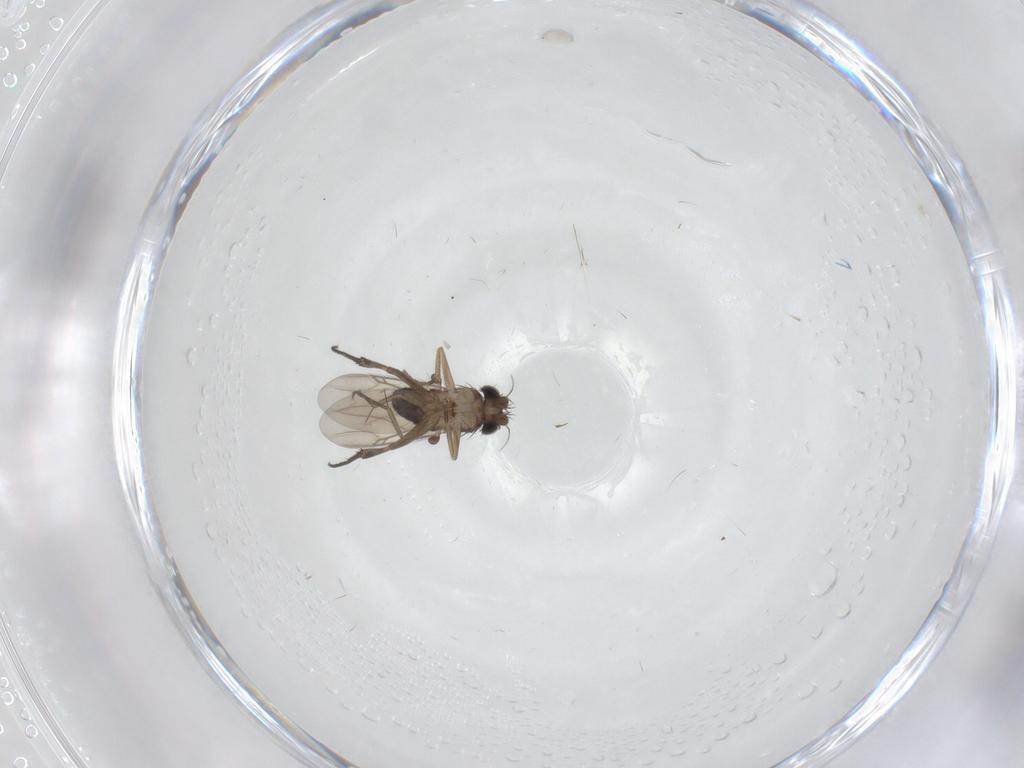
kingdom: Animalia
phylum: Arthropoda
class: Insecta
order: Diptera
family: Phoridae
